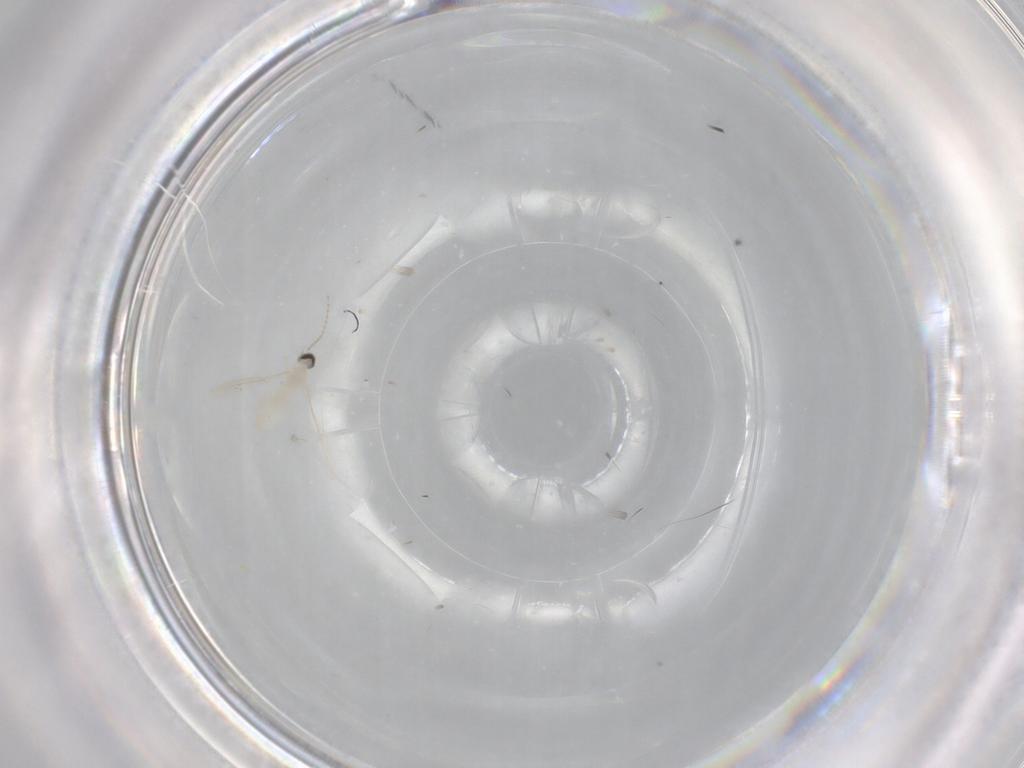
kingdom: Animalia
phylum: Arthropoda
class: Insecta
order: Diptera
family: Cecidomyiidae
